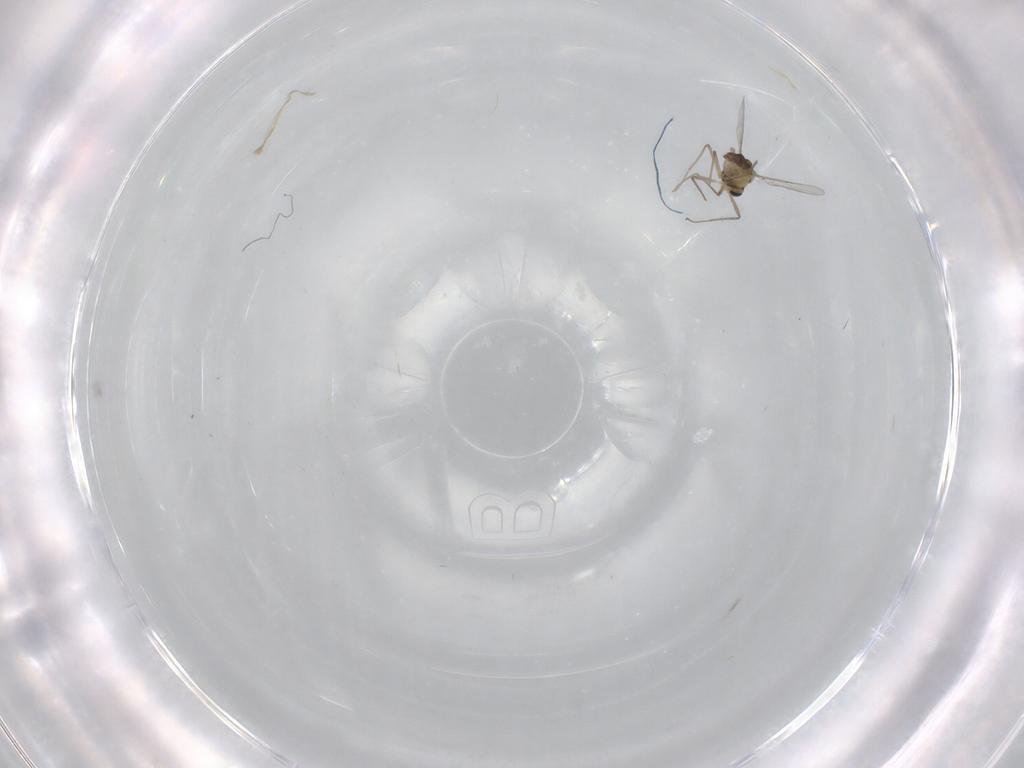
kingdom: Animalia
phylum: Arthropoda
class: Insecta
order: Diptera
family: Chironomidae
